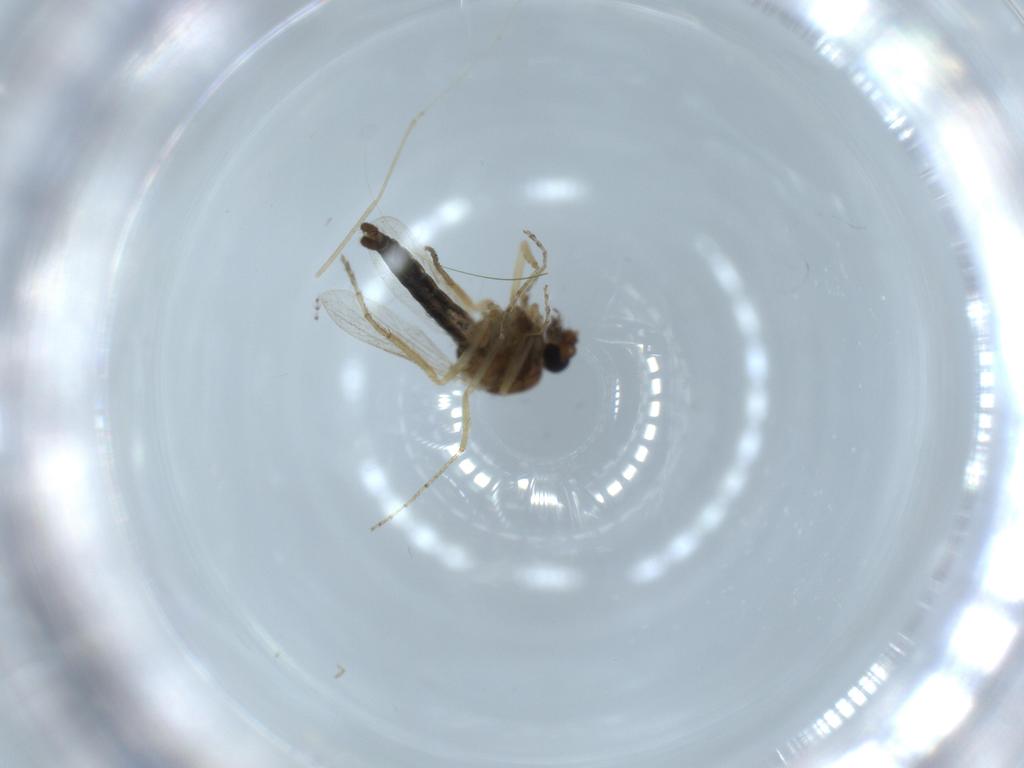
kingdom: Animalia
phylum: Arthropoda
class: Insecta
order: Diptera
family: Ceratopogonidae
